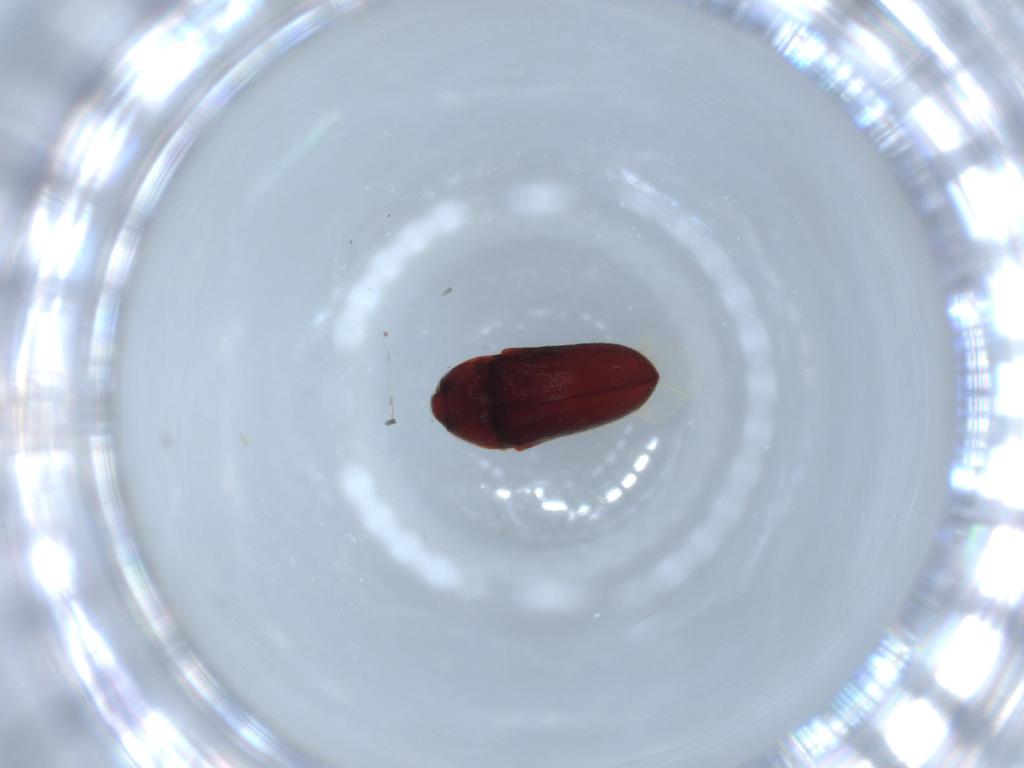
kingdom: Animalia
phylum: Arthropoda
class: Insecta
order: Coleoptera
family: Throscidae
